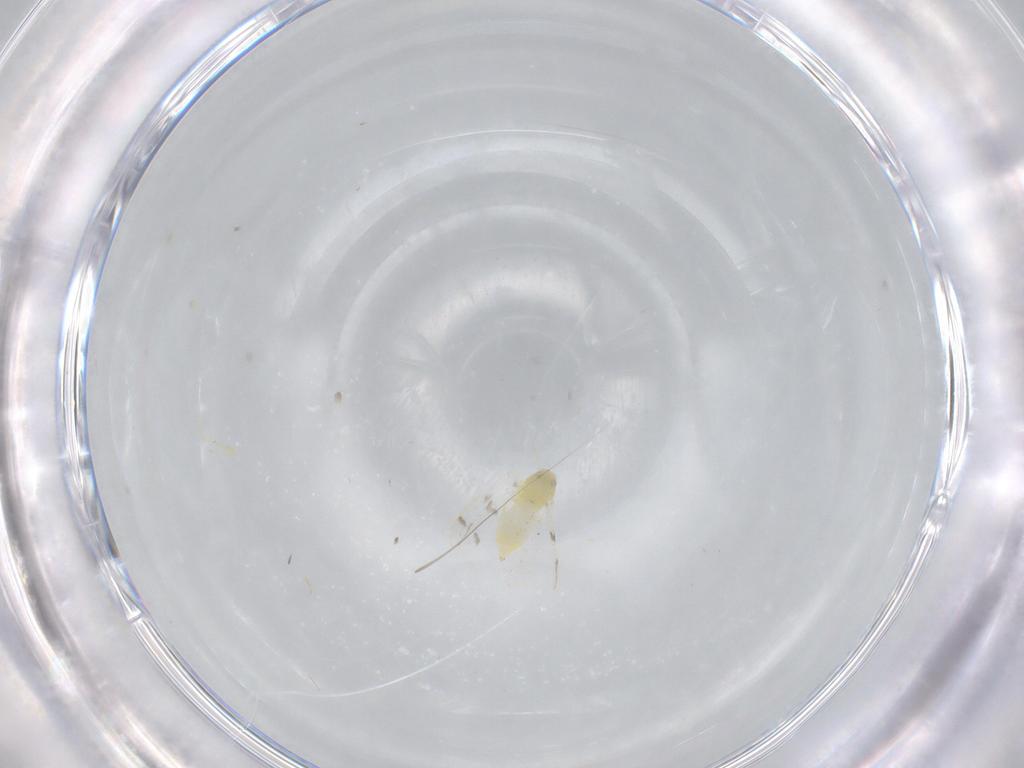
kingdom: Animalia
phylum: Arthropoda
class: Insecta
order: Hemiptera
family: Aleyrodidae
